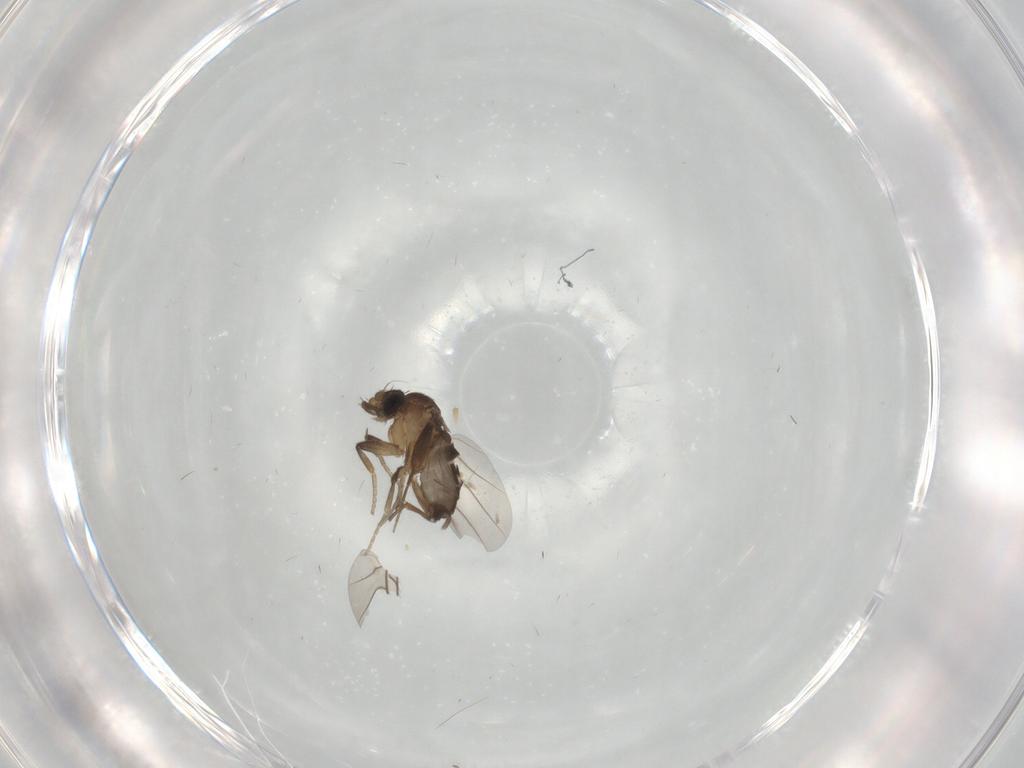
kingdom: Animalia
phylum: Arthropoda
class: Insecta
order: Diptera
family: Phoridae
